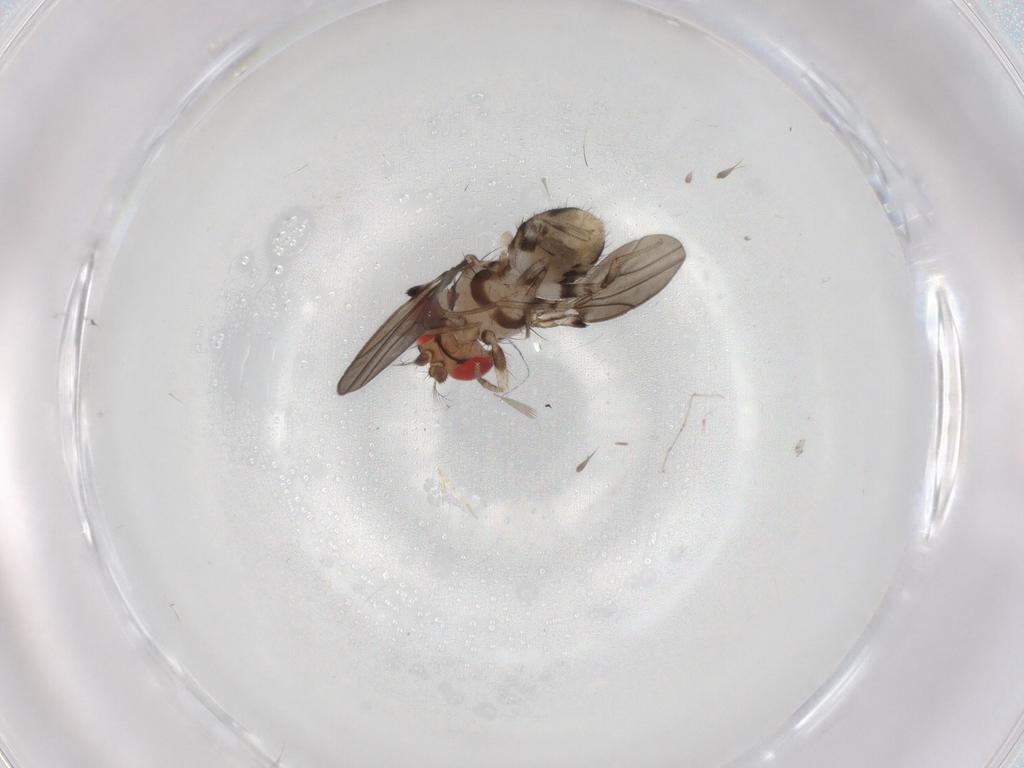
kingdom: Animalia
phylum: Arthropoda
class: Insecta
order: Diptera
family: Drosophilidae
